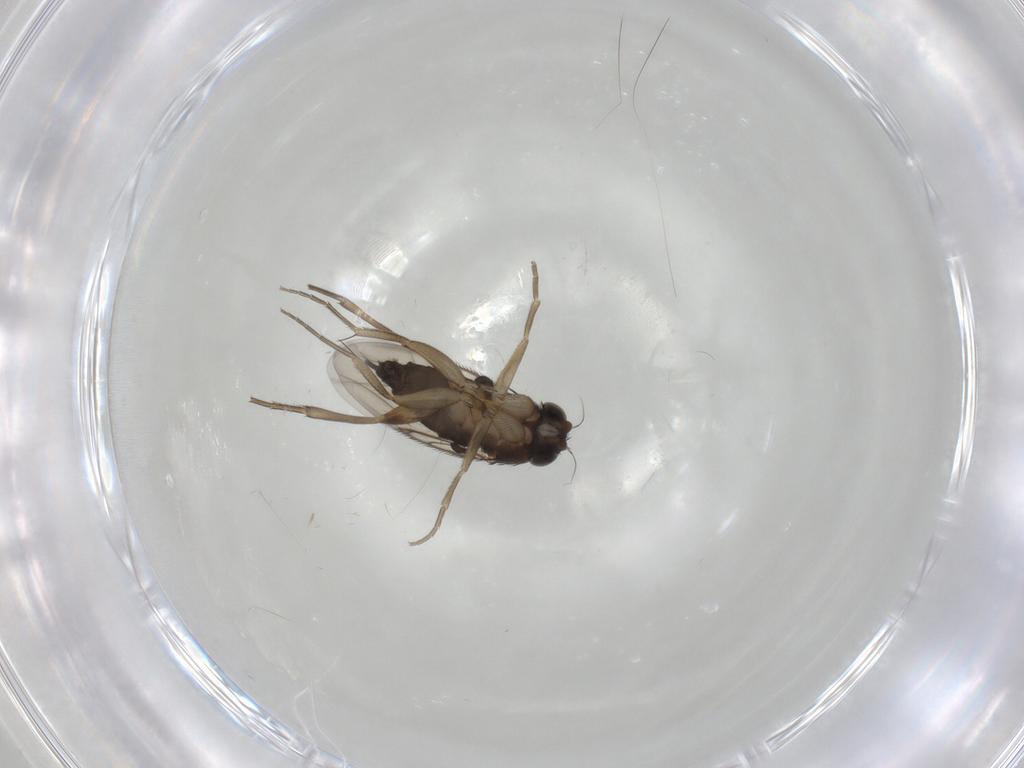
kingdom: Animalia
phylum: Arthropoda
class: Insecta
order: Diptera
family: Phoridae
